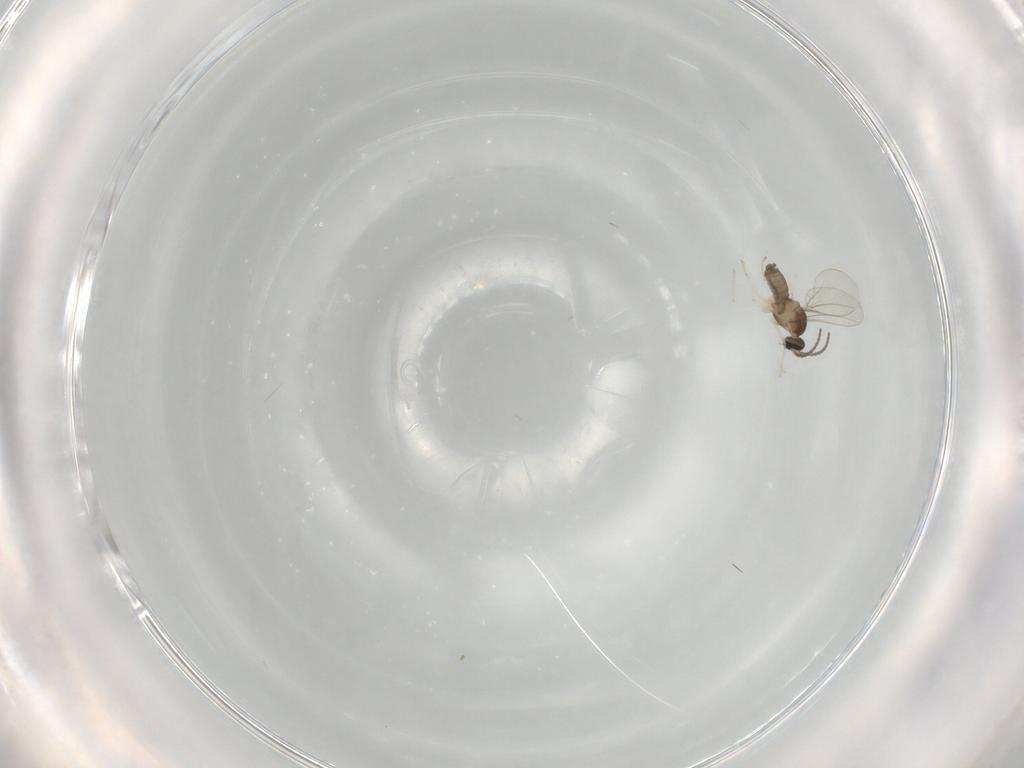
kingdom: Animalia
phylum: Arthropoda
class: Insecta
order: Diptera
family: Cecidomyiidae
